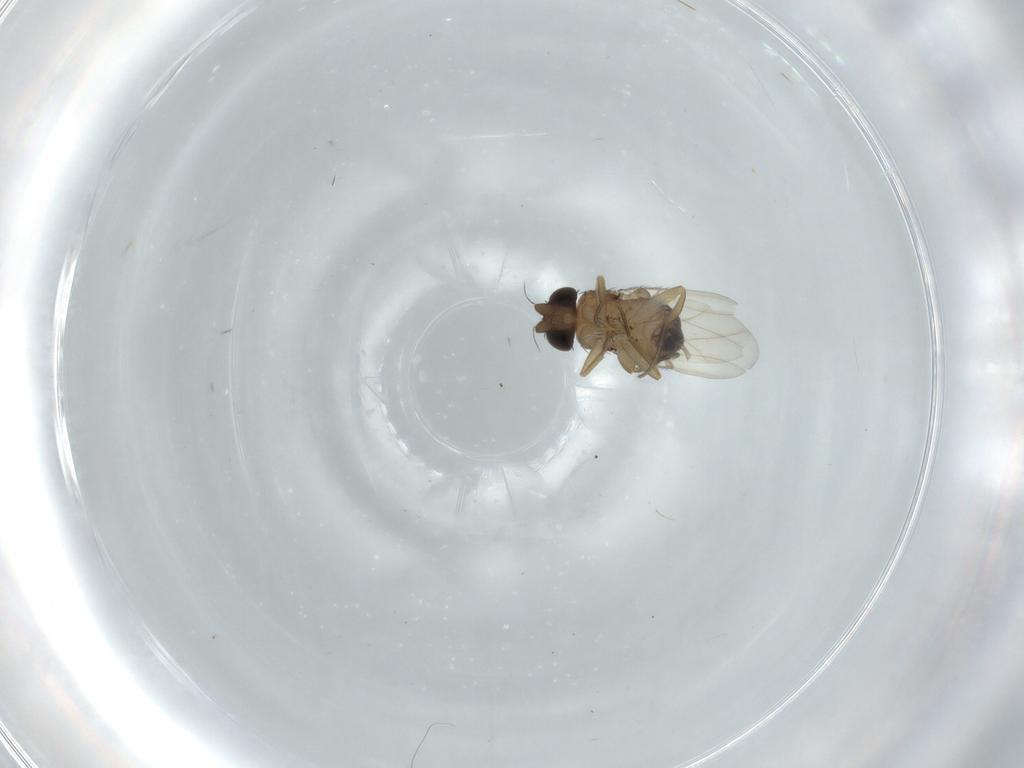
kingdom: Animalia
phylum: Arthropoda
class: Insecta
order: Diptera
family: Phoridae
